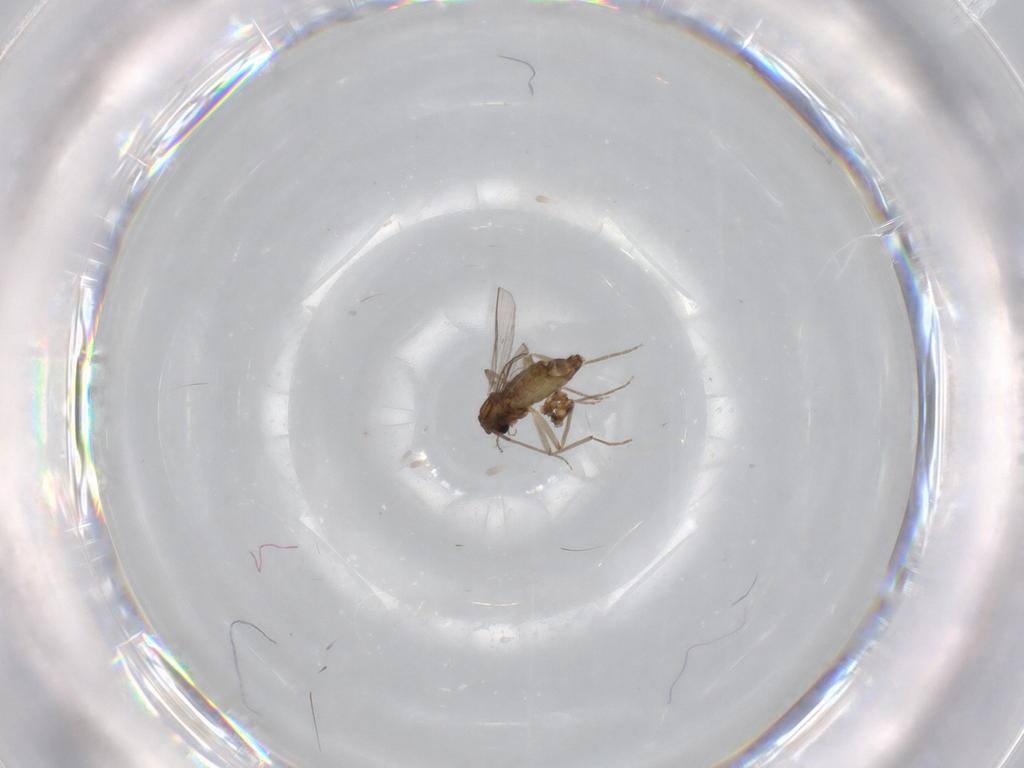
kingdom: Animalia
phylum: Arthropoda
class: Insecta
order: Diptera
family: Chironomidae
